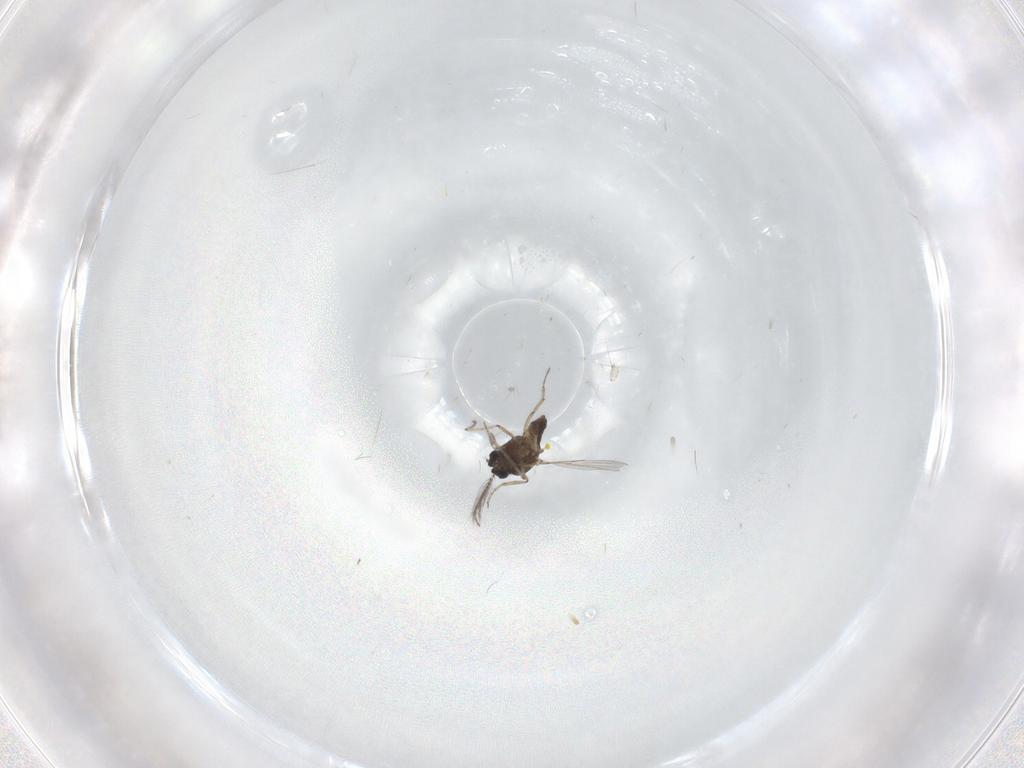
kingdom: Animalia
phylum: Arthropoda
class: Insecta
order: Diptera
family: Ceratopogonidae
